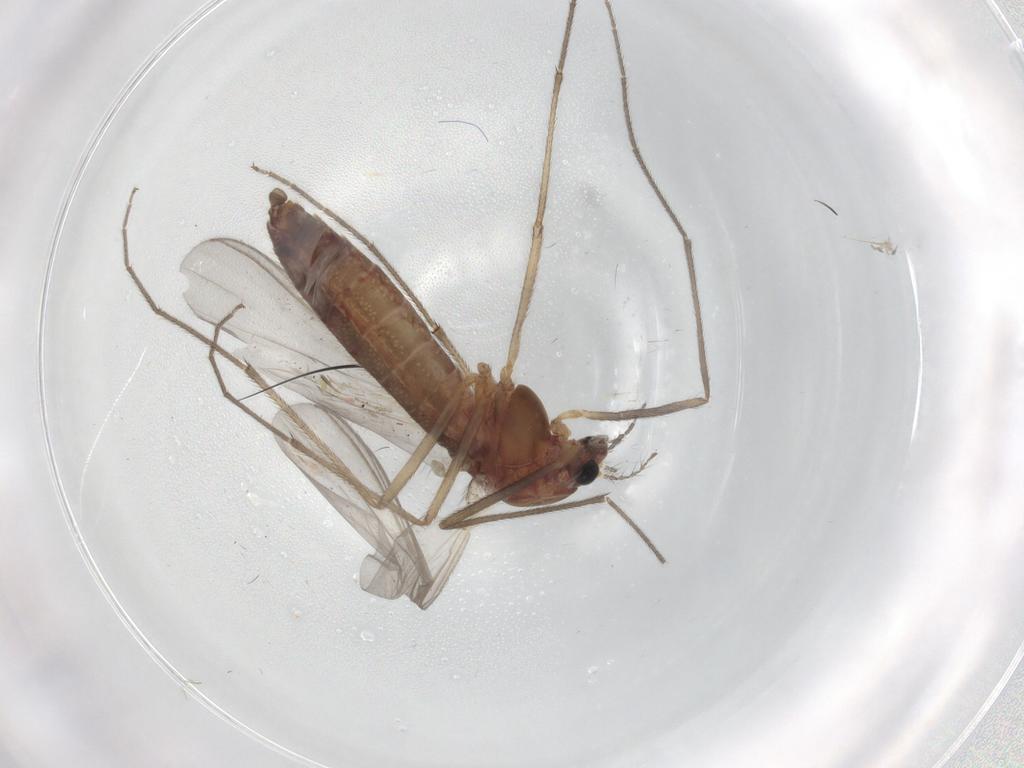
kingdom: Animalia
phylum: Arthropoda
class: Insecta
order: Diptera
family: Chironomidae
